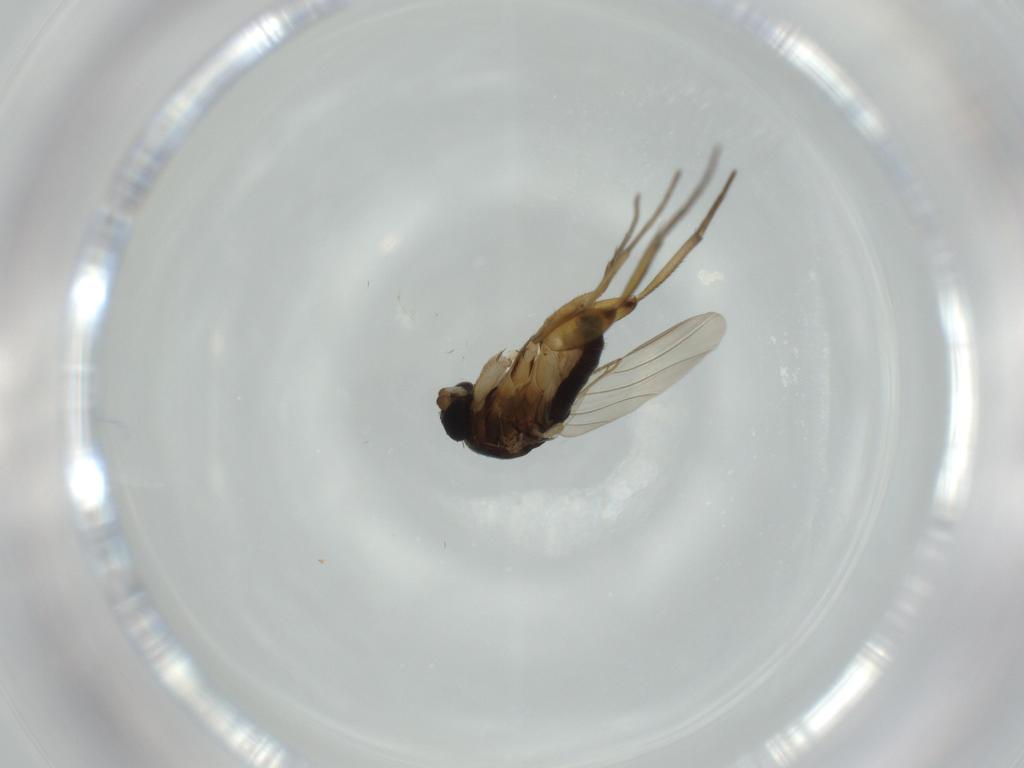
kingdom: Animalia
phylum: Arthropoda
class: Insecta
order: Diptera
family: Phoridae
